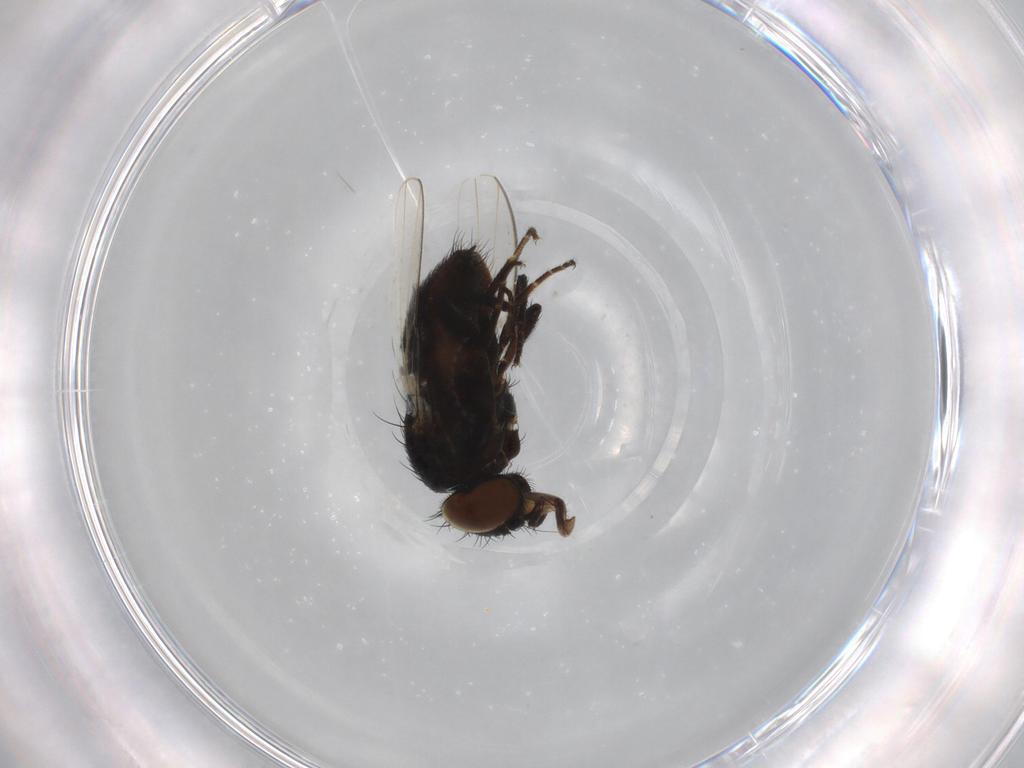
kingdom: Animalia
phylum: Arthropoda
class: Insecta
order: Diptera
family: Milichiidae
